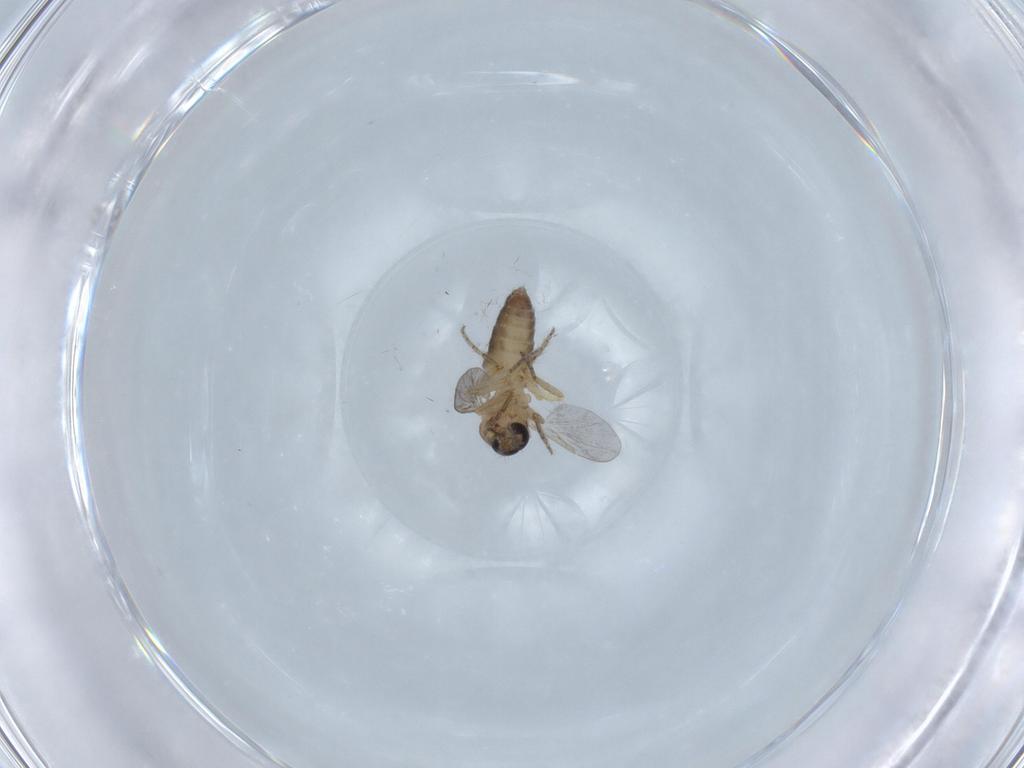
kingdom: Animalia
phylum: Arthropoda
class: Insecta
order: Diptera
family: Ceratopogonidae
